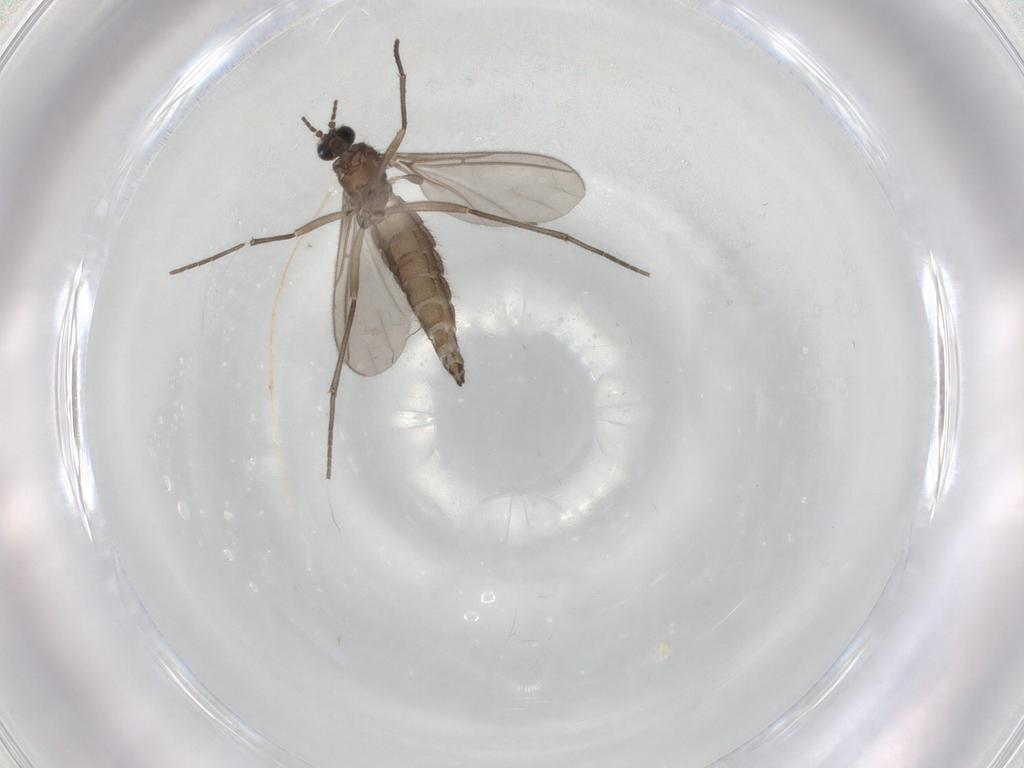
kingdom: Animalia
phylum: Arthropoda
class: Insecta
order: Diptera
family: Sciaridae
